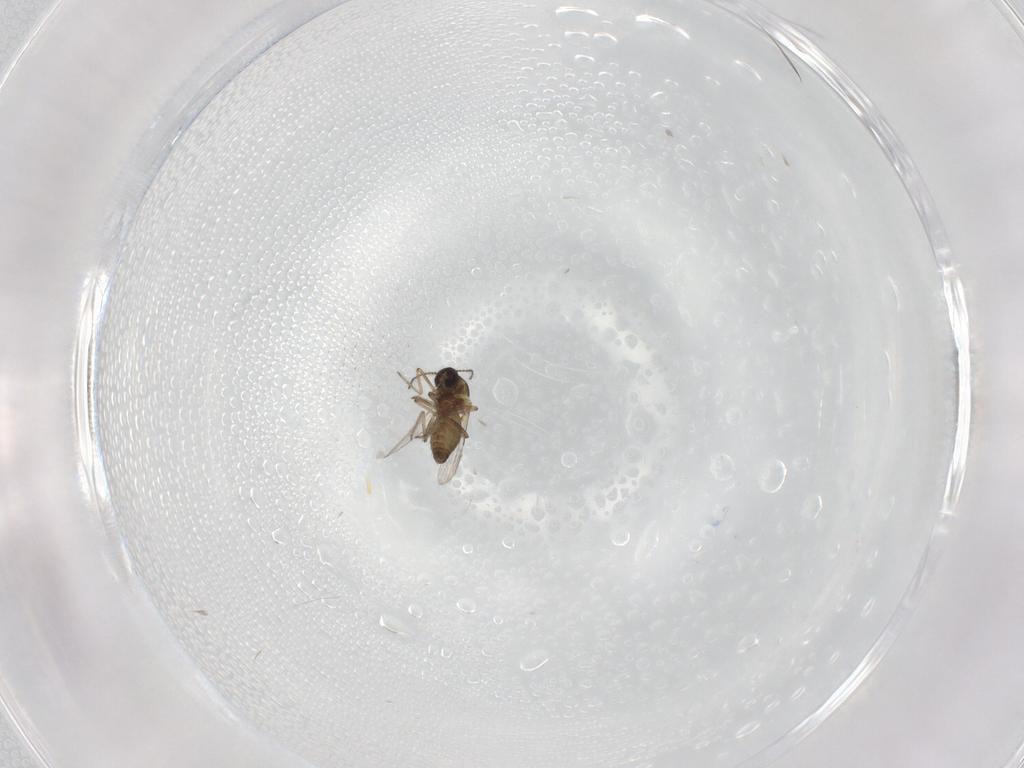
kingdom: Animalia
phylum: Arthropoda
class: Insecta
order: Diptera
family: Ceratopogonidae
